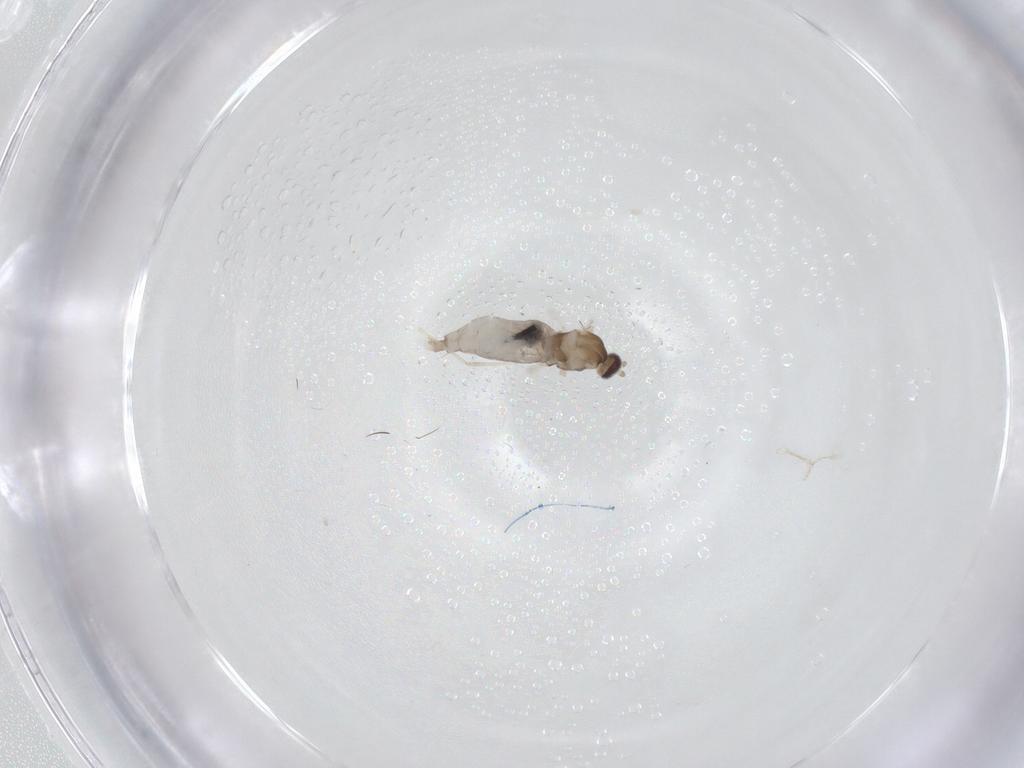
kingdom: Animalia
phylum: Arthropoda
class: Insecta
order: Diptera
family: Cecidomyiidae
